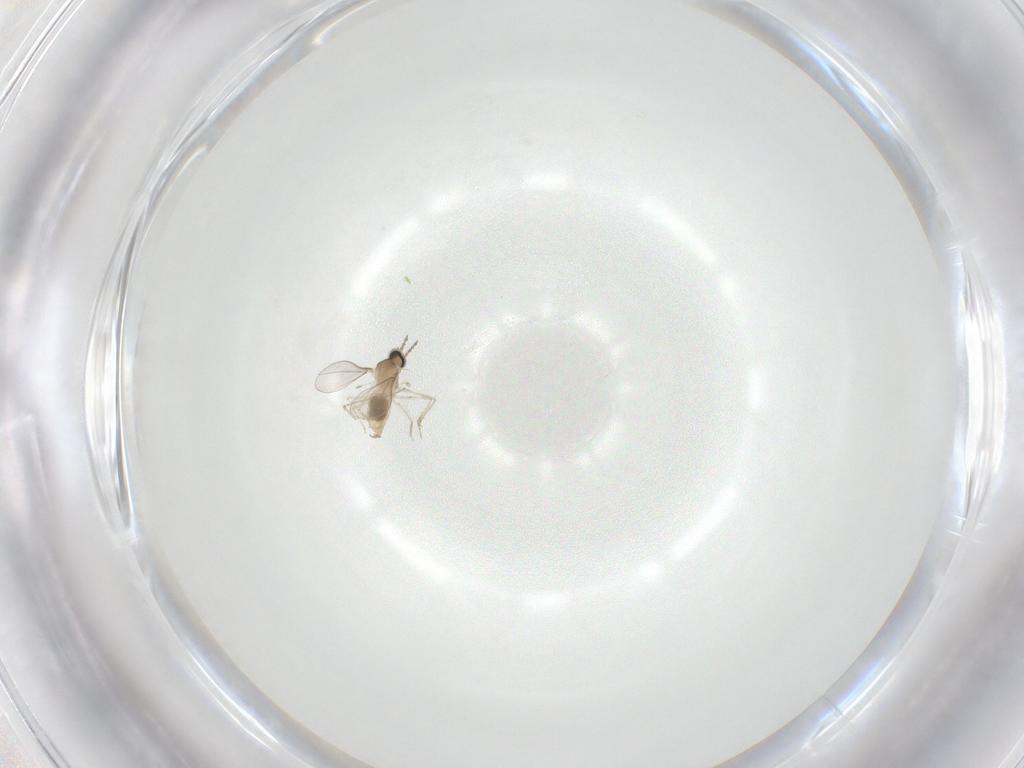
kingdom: Animalia
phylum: Arthropoda
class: Insecta
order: Diptera
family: Cecidomyiidae
